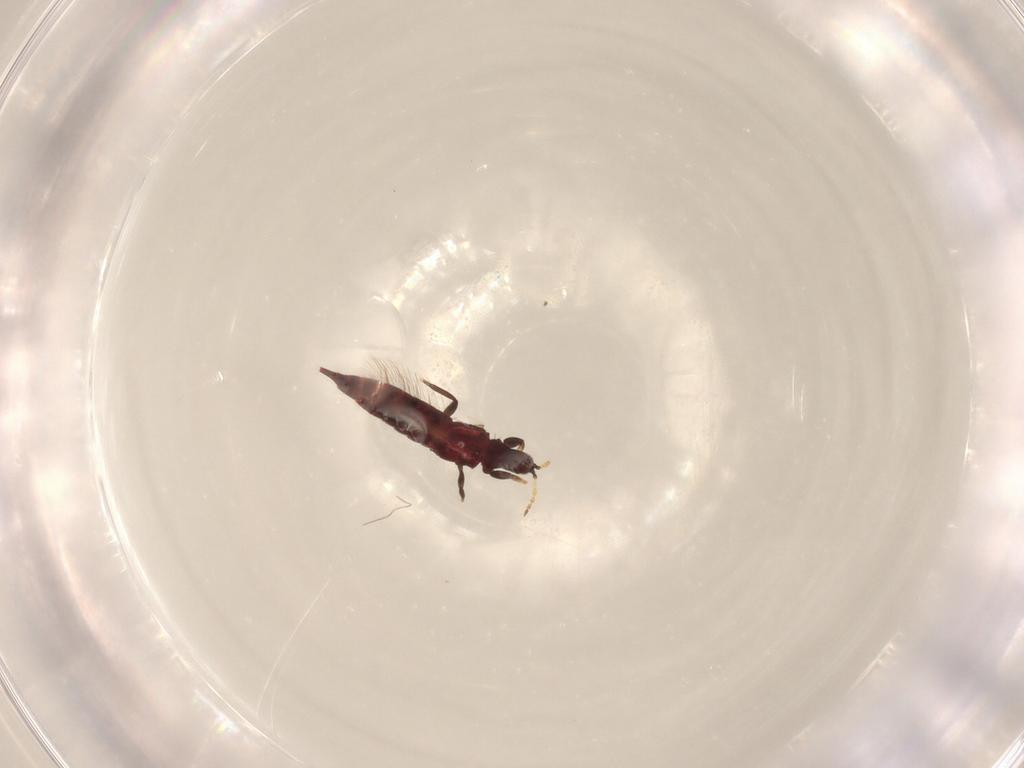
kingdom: Animalia
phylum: Arthropoda
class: Insecta
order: Thysanoptera
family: Phlaeothripidae
